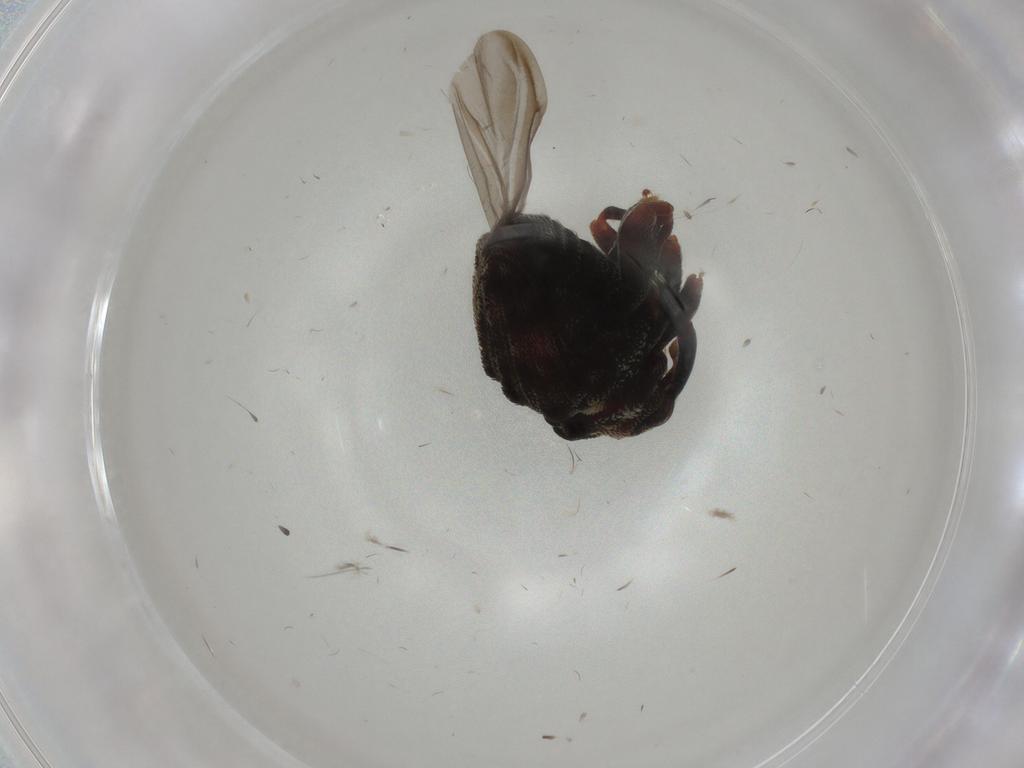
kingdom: Animalia
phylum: Arthropoda
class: Insecta
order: Coleoptera
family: Curculionidae
